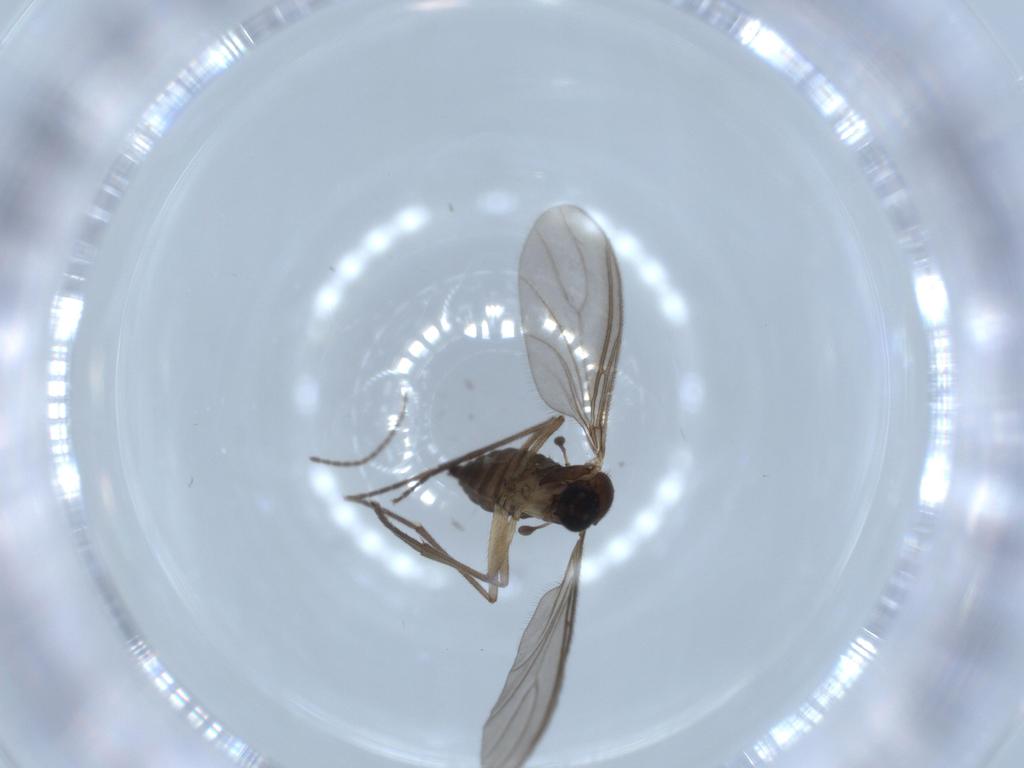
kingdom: Animalia
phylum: Arthropoda
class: Insecta
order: Diptera
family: Sciaridae
